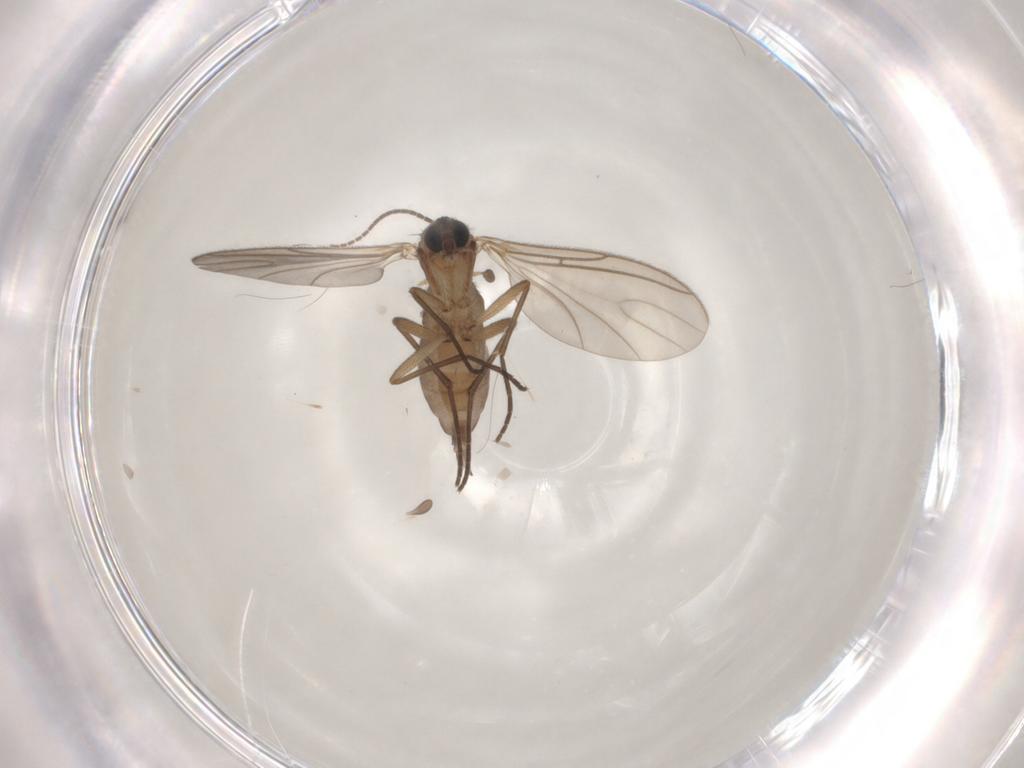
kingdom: Animalia
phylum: Arthropoda
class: Insecta
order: Diptera
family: Sciaridae
